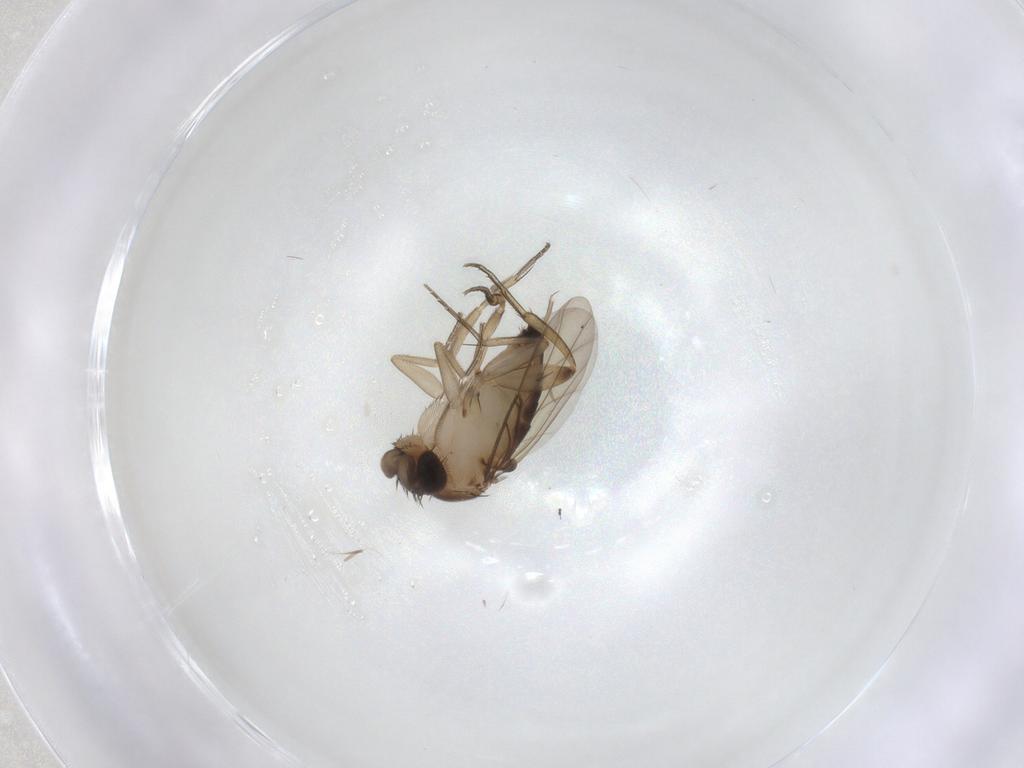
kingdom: Animalia
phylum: Arthropoda
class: Insecta
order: Diptera
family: Phoridae
